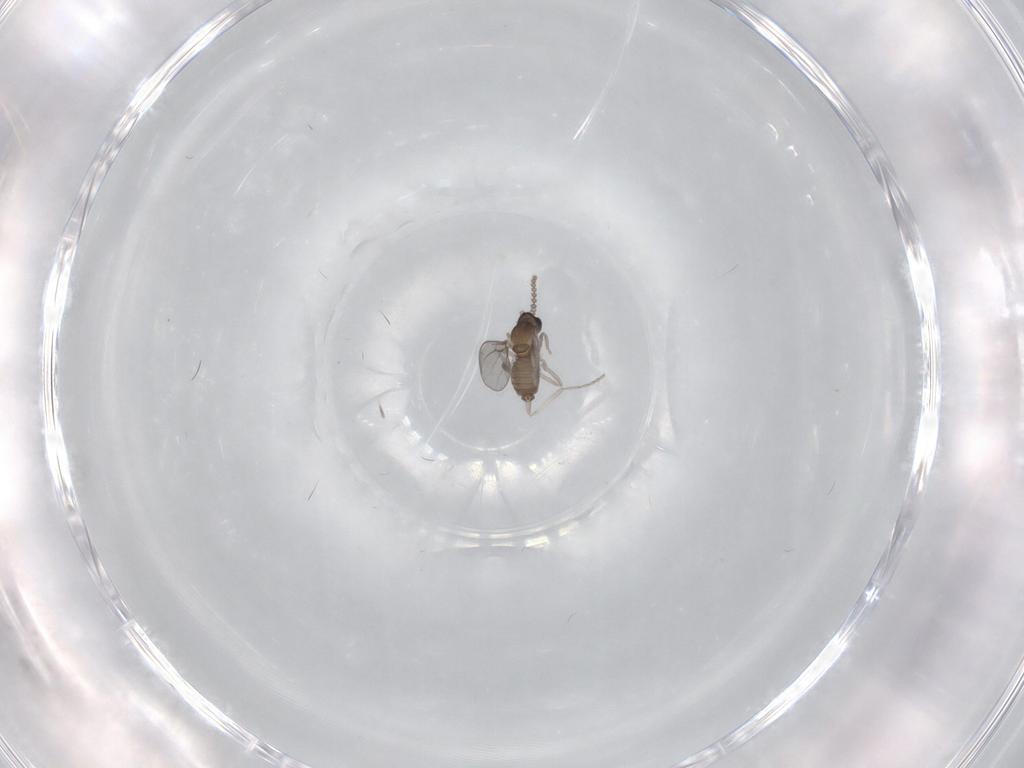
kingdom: Animalia
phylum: Arthropoda
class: Insecta
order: Diptera
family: Cecidomyiidae
